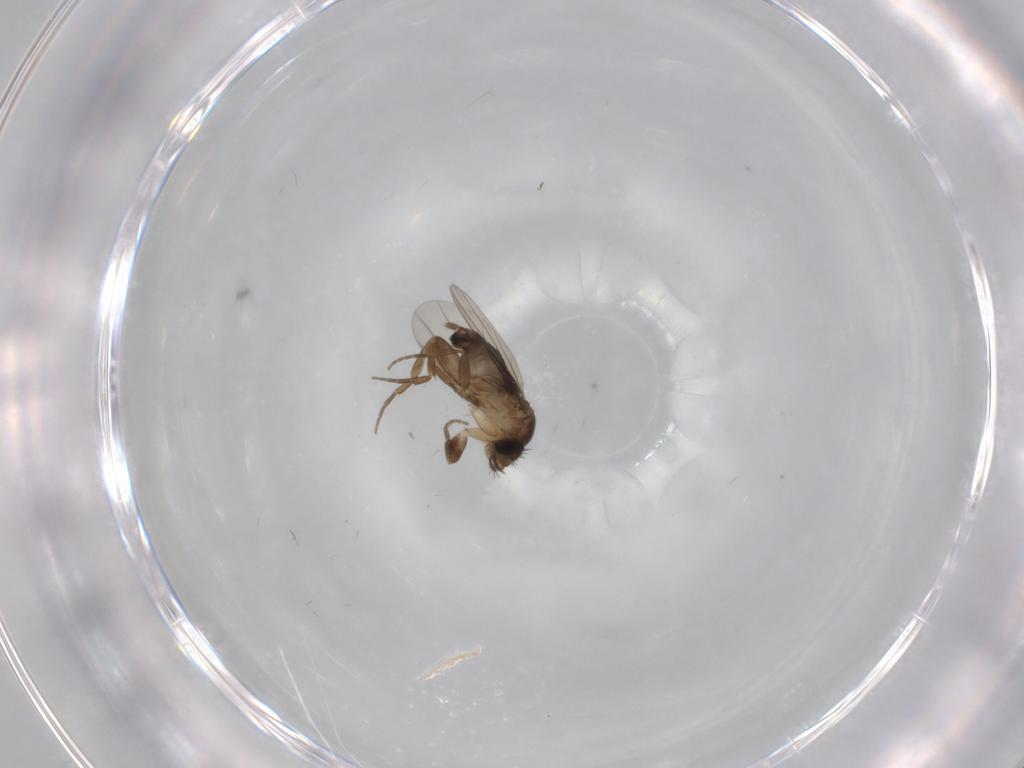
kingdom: Animalia
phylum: Arthropoda
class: Insecta
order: Diptera
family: Phoridae
